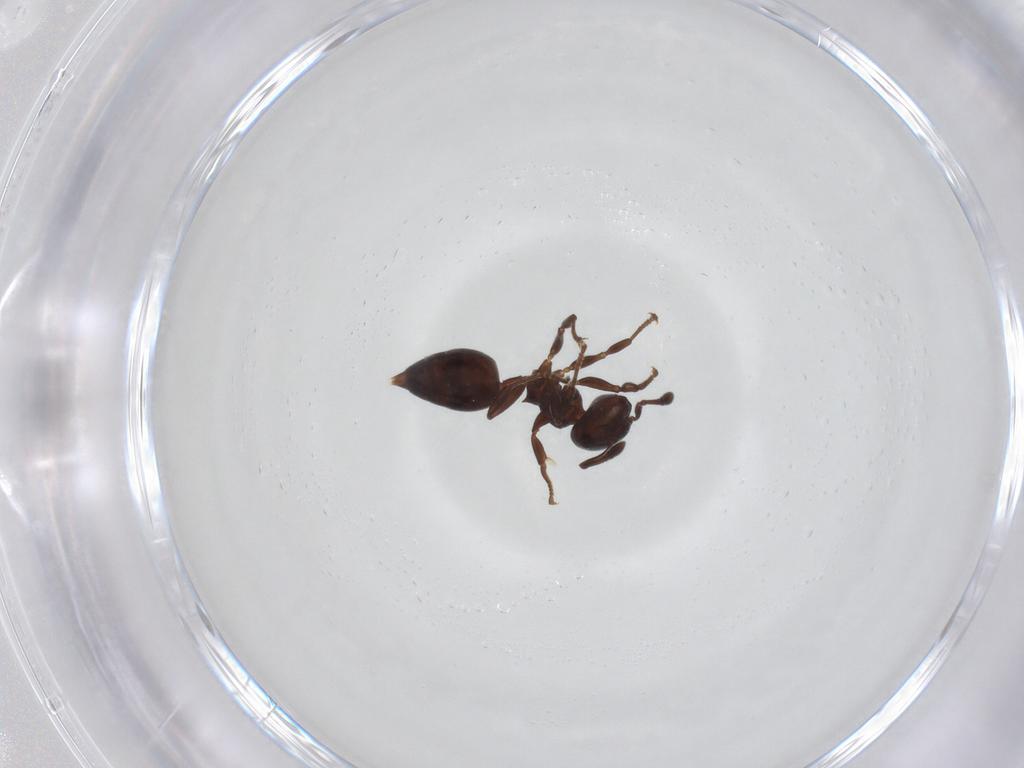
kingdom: Animalia
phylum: Arthropoda
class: Insecta
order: Hymenoptera
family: Formicidae
